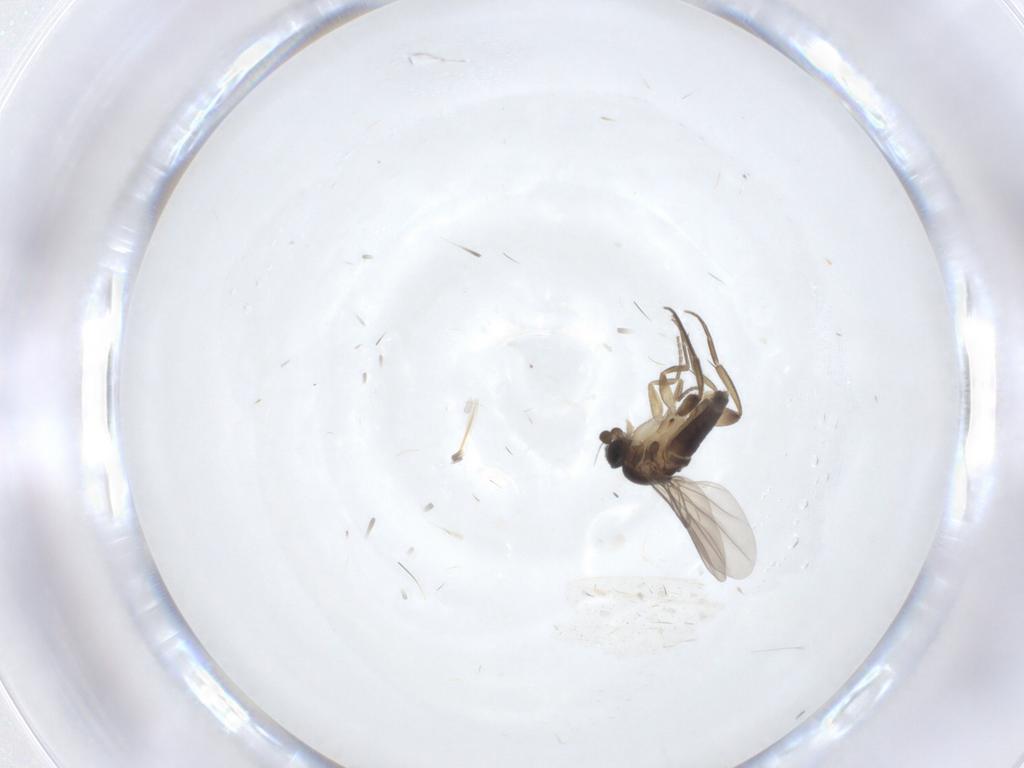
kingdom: Animalia
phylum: Arthropoda
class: Insecta
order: Diptera
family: Phoridae
